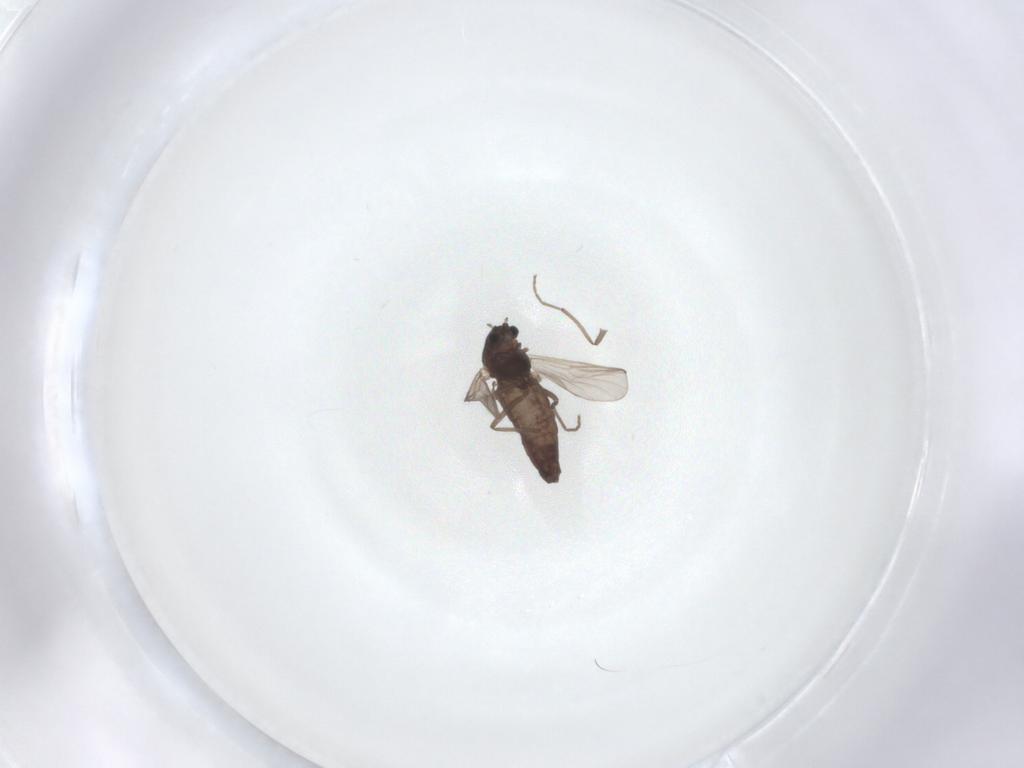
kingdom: Animalia
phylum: Arthropoda
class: Insecta
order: Diptera
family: Chironomidae
